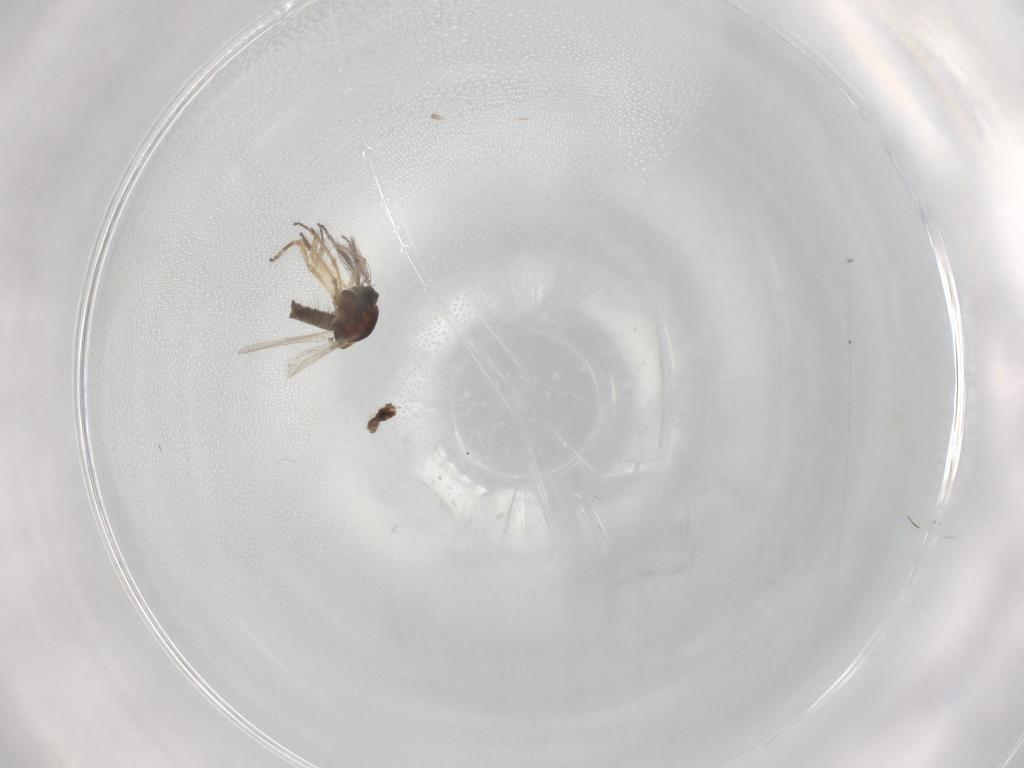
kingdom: Animalia
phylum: Arthropoda
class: Insecta
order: Diptera
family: Ceratopogonidae
